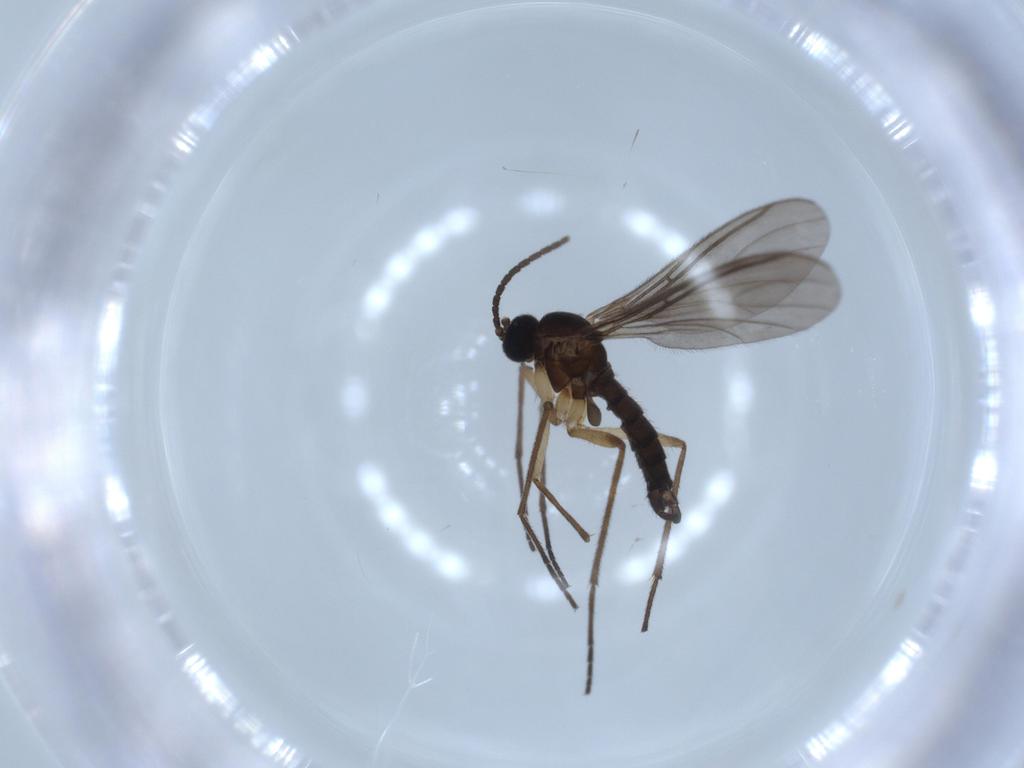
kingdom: Animalia
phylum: Arthropoda
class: Insecta
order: Diptera
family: Sciaridae
